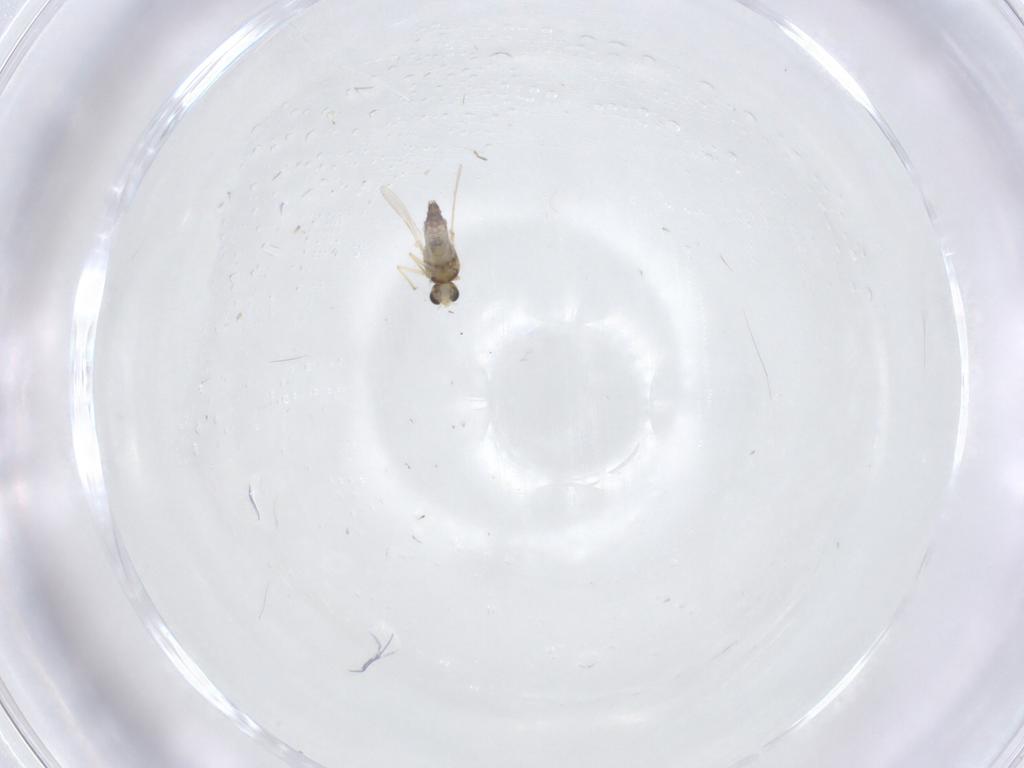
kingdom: Animalia
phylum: Arthropoda
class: Insecta
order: Diptera
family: Chironomidae
